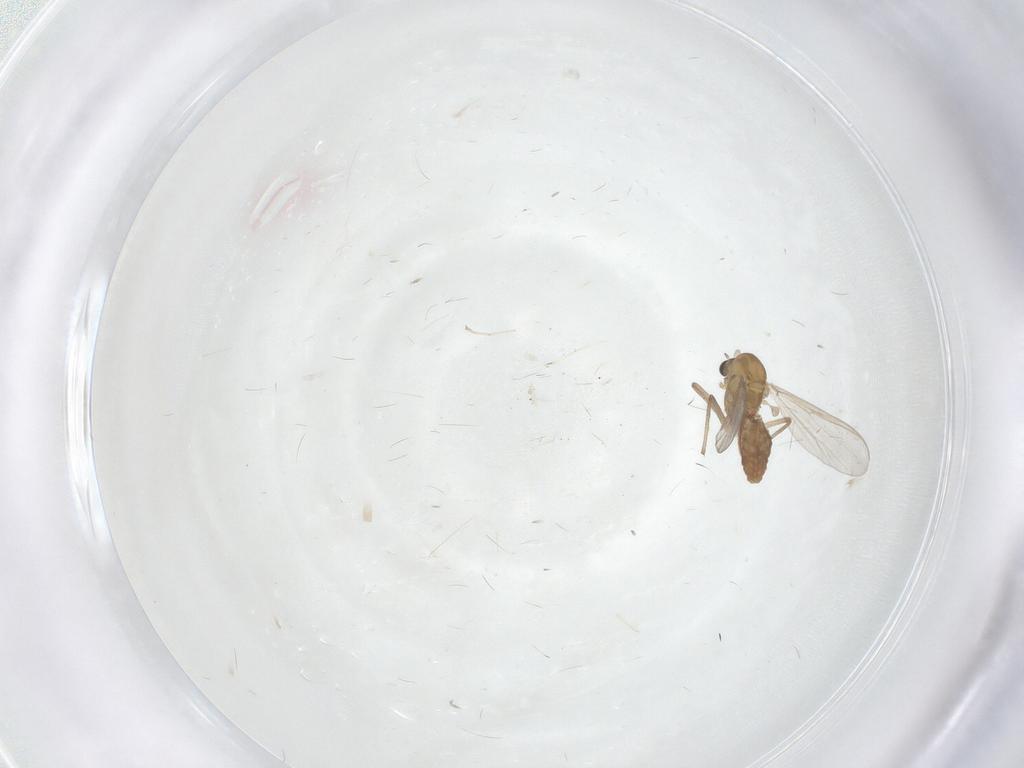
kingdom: Animalia
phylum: Arthropoda
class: Insecta
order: Diptera
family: Chironomidae
